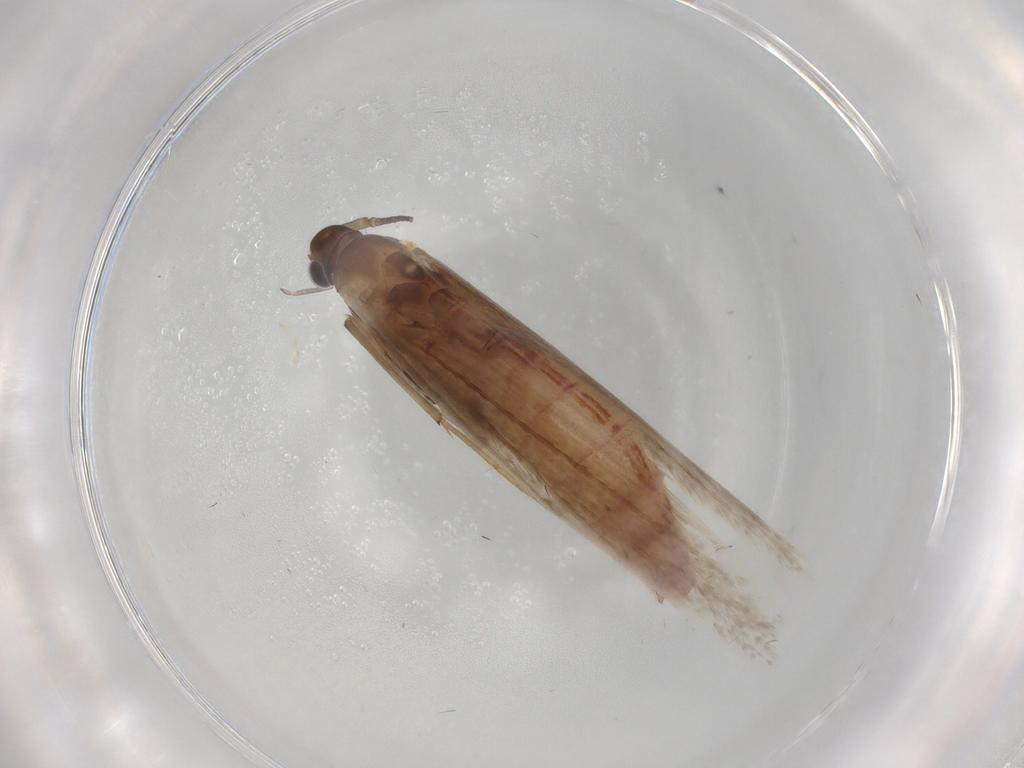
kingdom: Animalia
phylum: Arthropoda
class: Insecta
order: Lepidoptera
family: Coleophoridae
